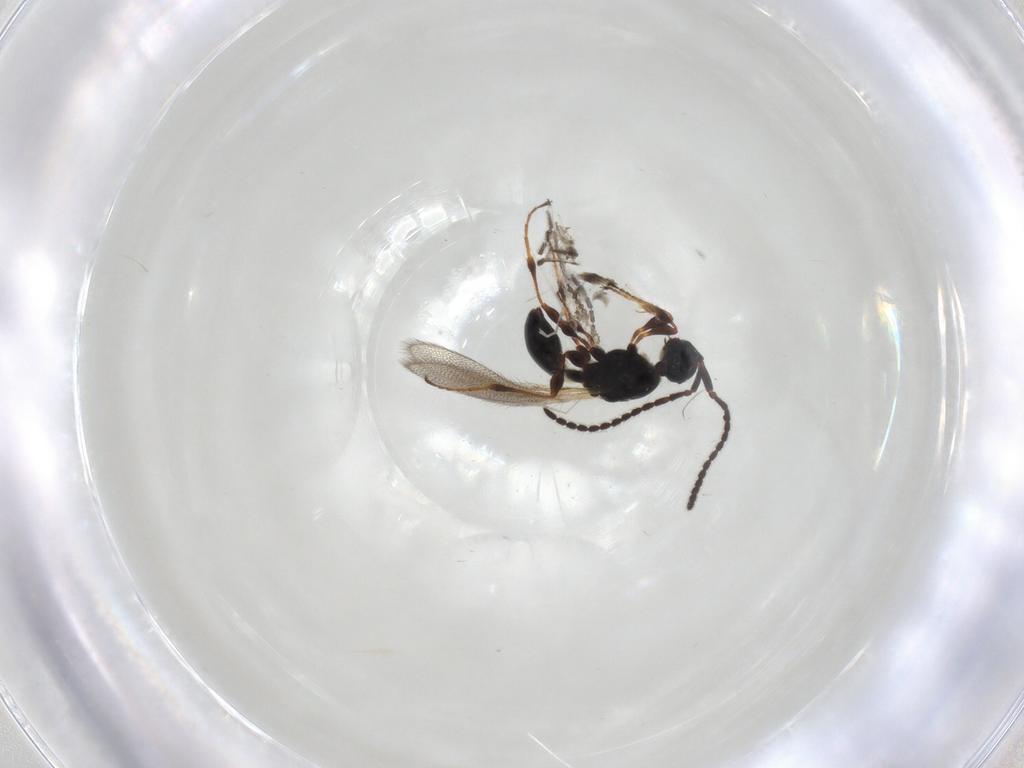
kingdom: Animalia
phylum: Arthropoda
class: Insecta
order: Hymenoptera
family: Diapriidae
